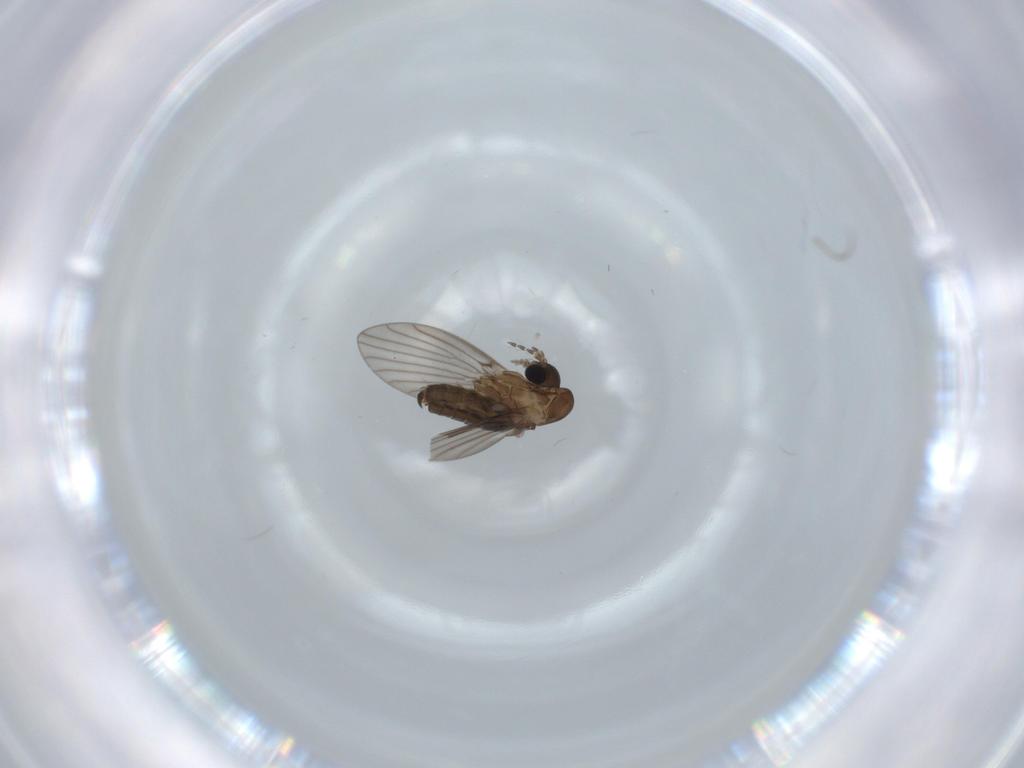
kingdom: Animalia
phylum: Arthropoda
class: Insecta
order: Diptera
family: Psychodidae
